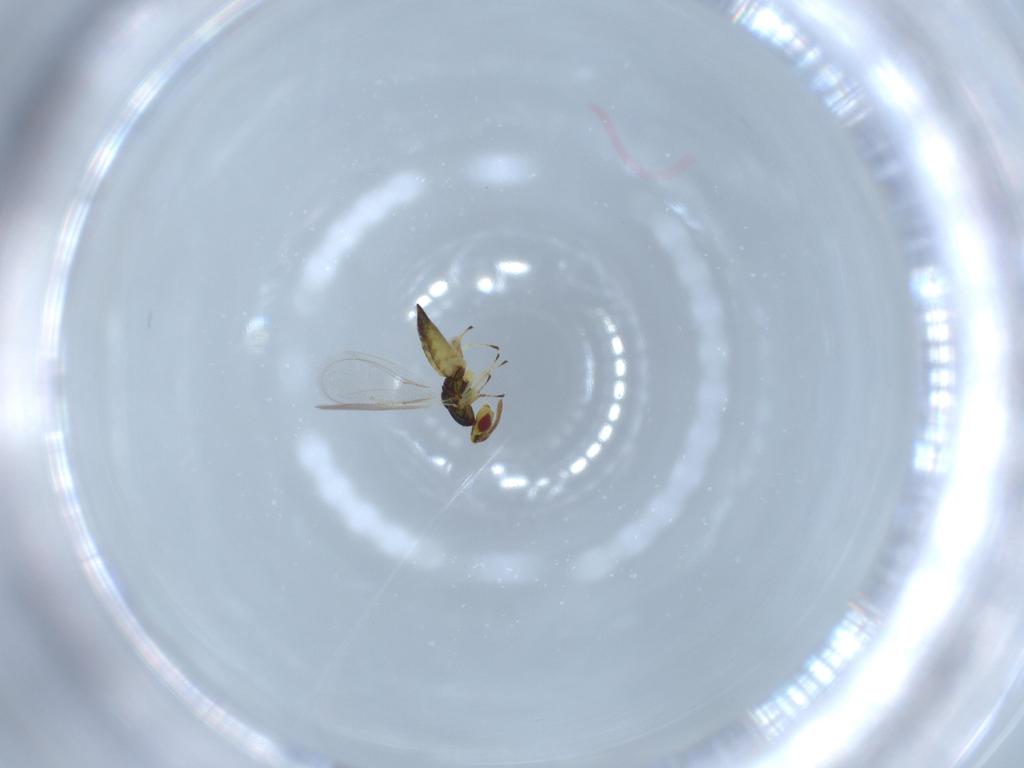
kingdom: Animalia
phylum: Arthropoda
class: Insecta
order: Hymenoptera
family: Eulophidae
